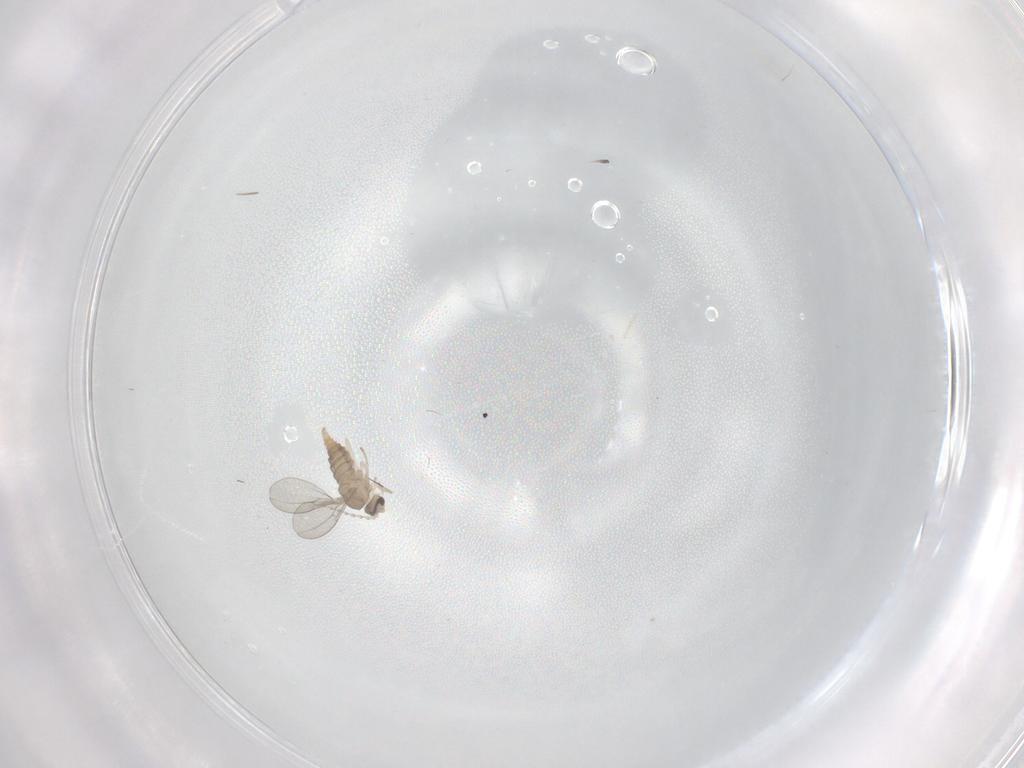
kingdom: Animalia
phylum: Arthropoda
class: Insecta
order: Diptera
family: Cecidomyiidae
